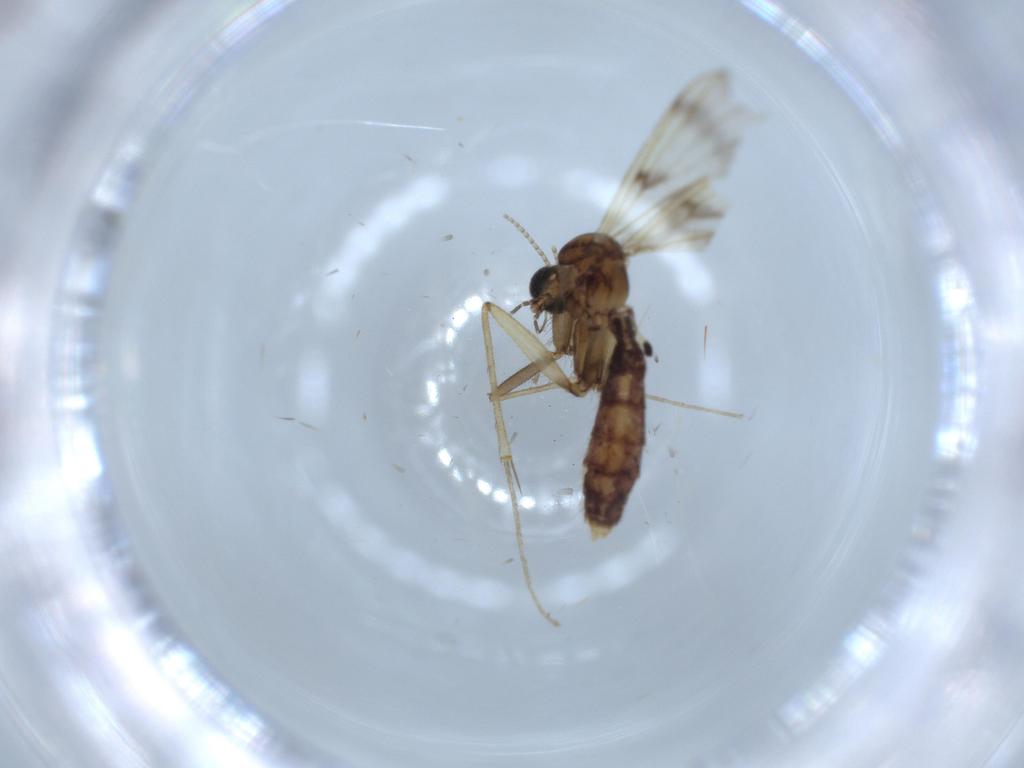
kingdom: Animalia
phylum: Arthropoda
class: Insecta
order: Diptera
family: Mycetophilidae
